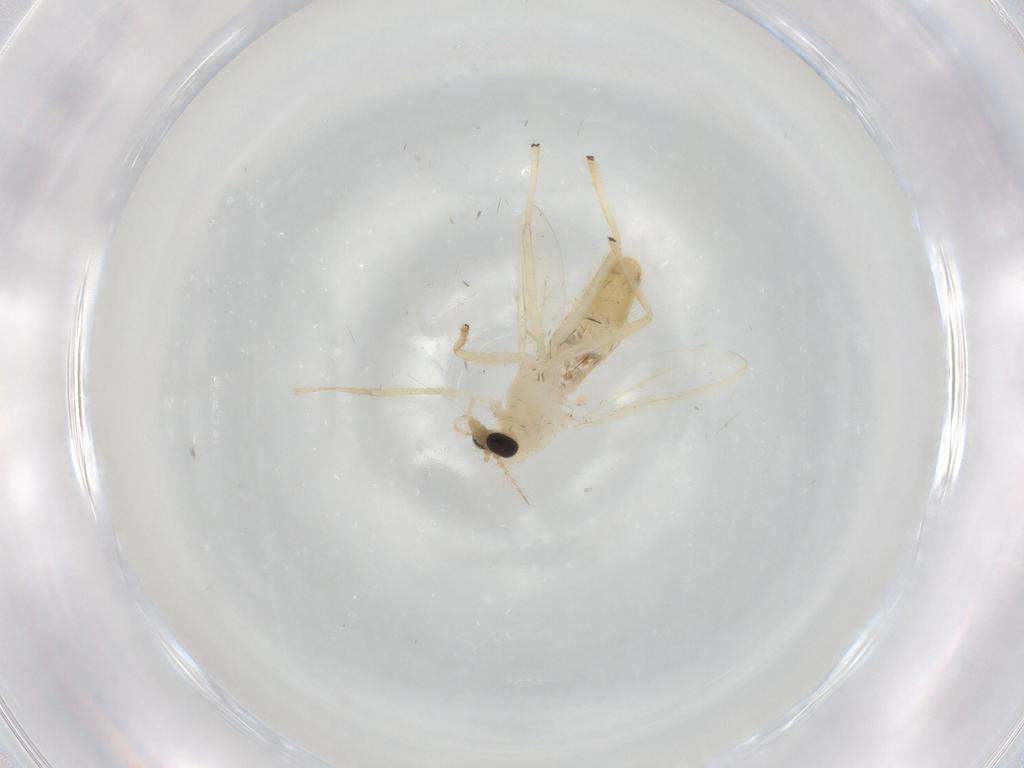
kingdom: Animalia
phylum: Arthropoda
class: Insecta
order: Diptera
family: Chironomidae
